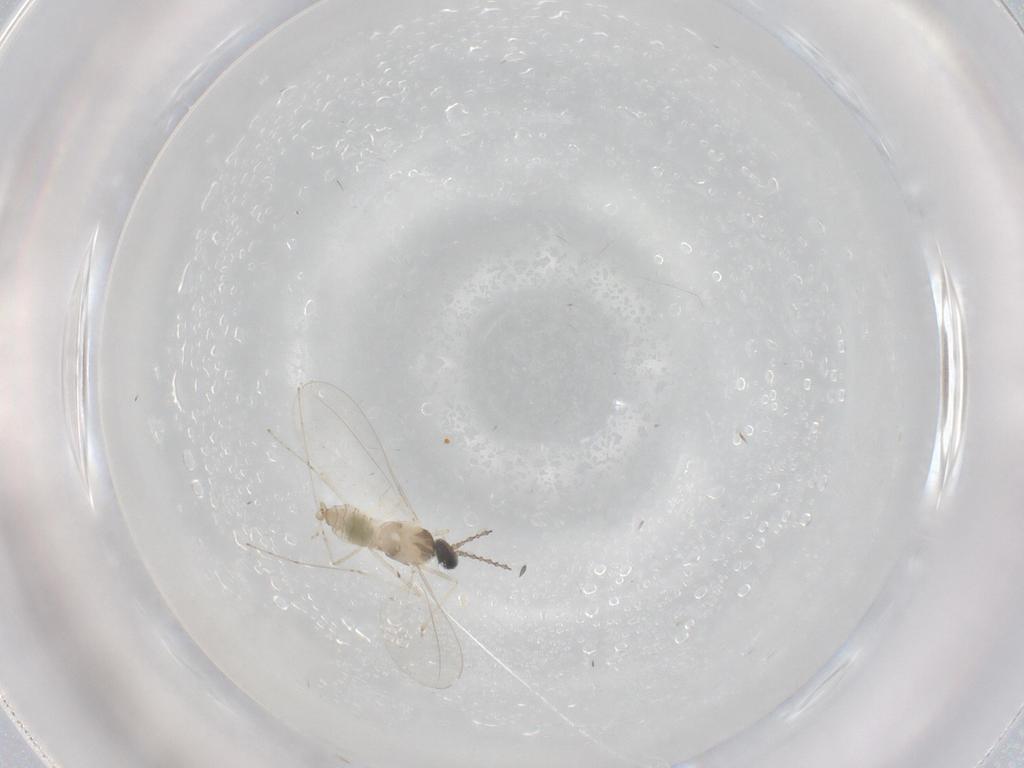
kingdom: Animalia
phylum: Arthropoda
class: Insecta
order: Diptera
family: Cecidomyiidae
